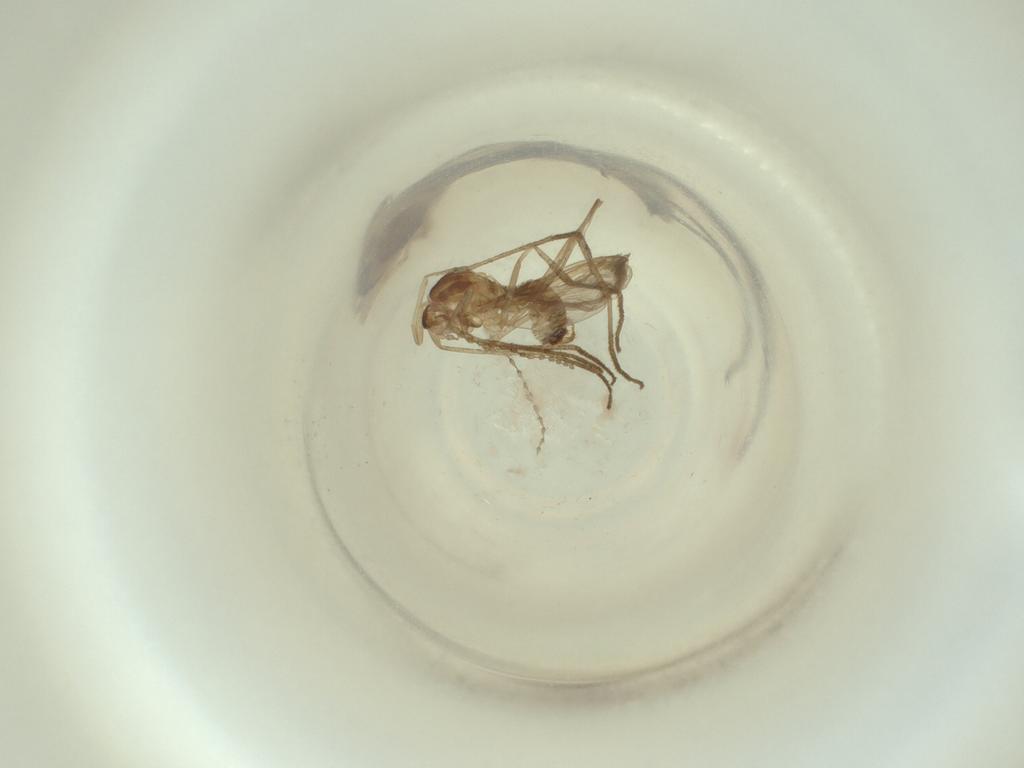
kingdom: Animalia
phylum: Arthropoda
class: Insecta
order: Diptera
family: Cecidomyiidae
